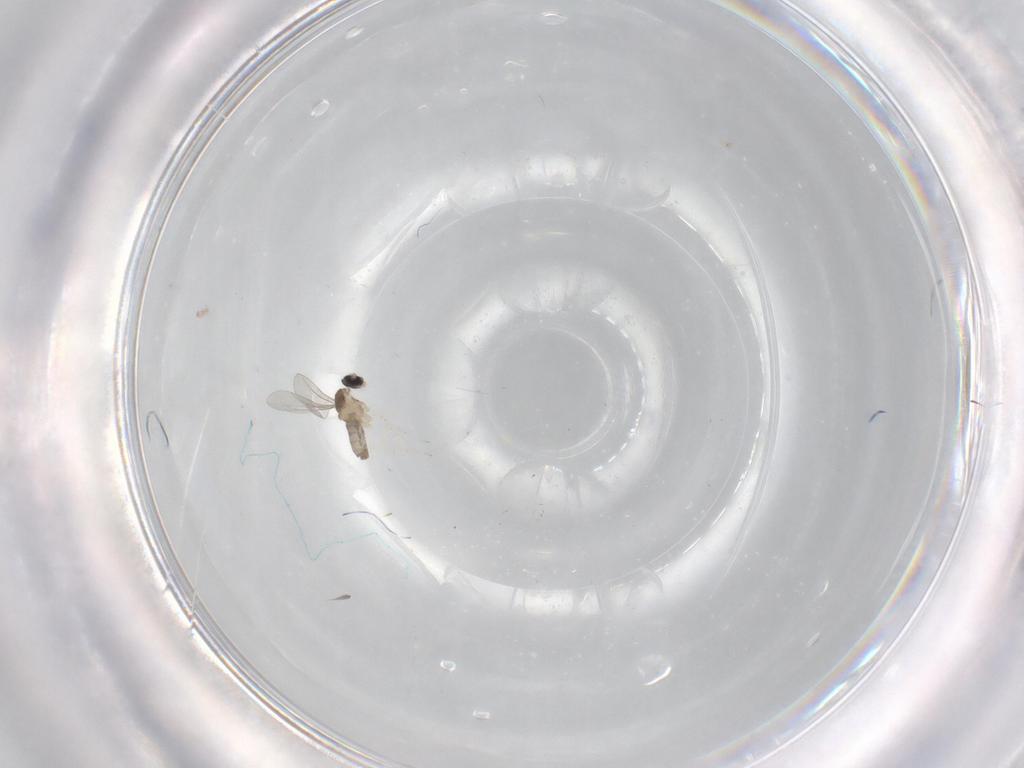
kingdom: Animalia
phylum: Arthropoda
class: Insecta
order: Diptera
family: Cecidomyiidae
